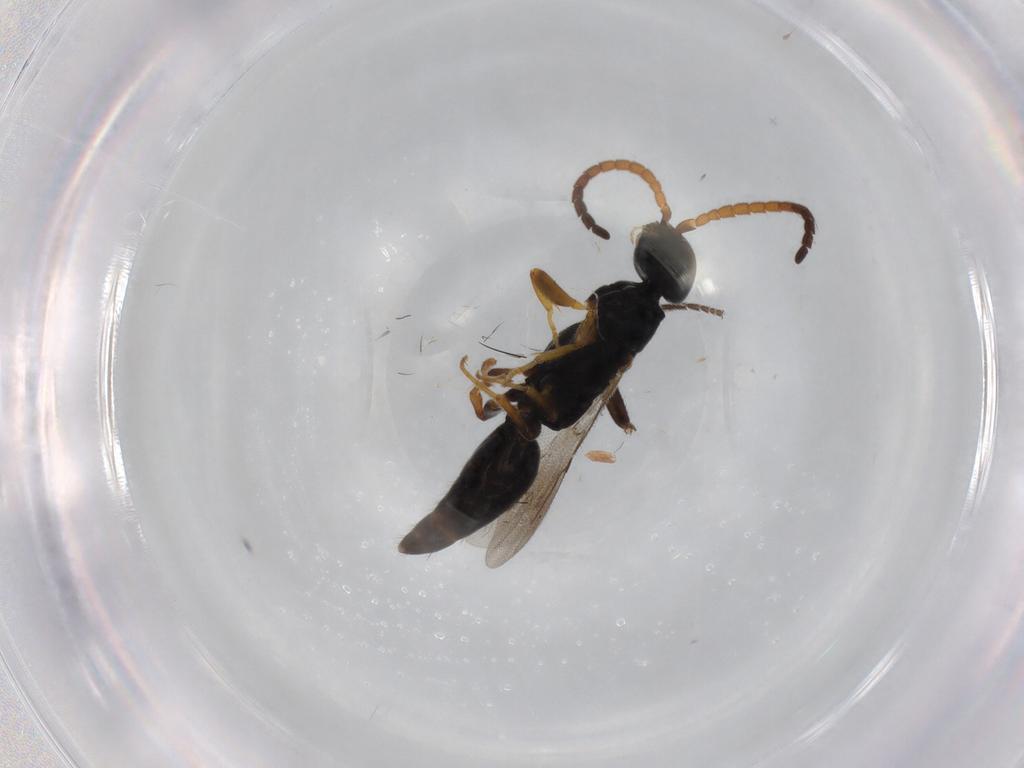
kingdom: Animalia
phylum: Arthropoda
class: Insecta
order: Hymenoptera
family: Bethylidae
